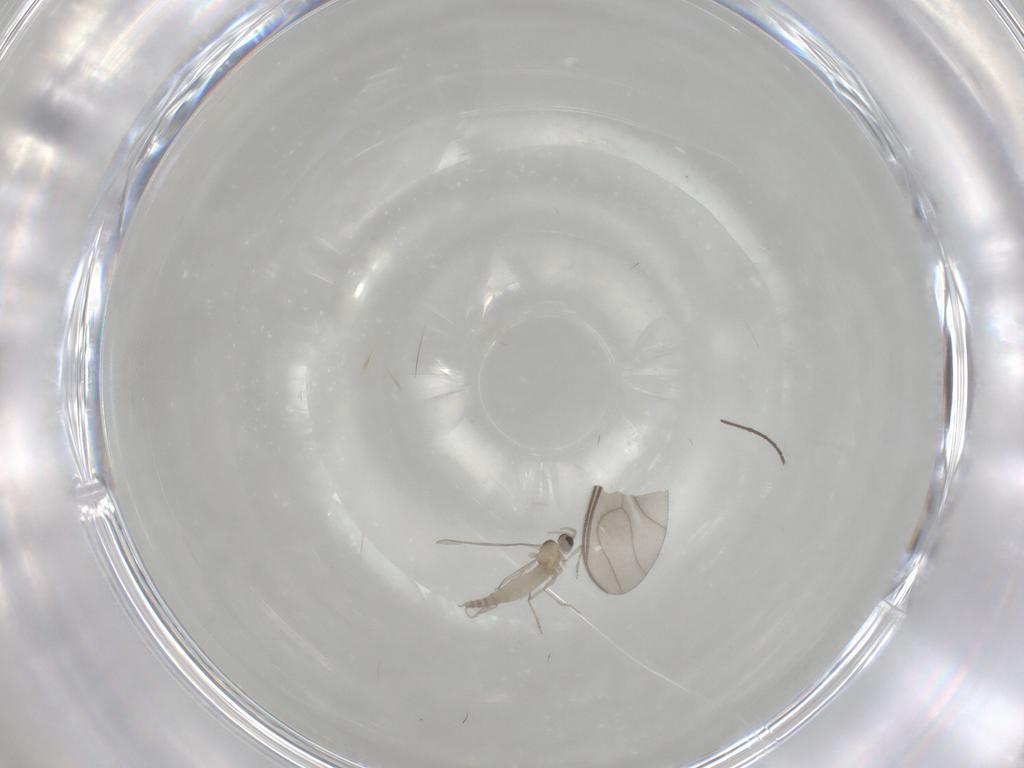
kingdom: Animalia
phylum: Arthropoda
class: Insecta
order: Diptera
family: Cecidomyiidae
